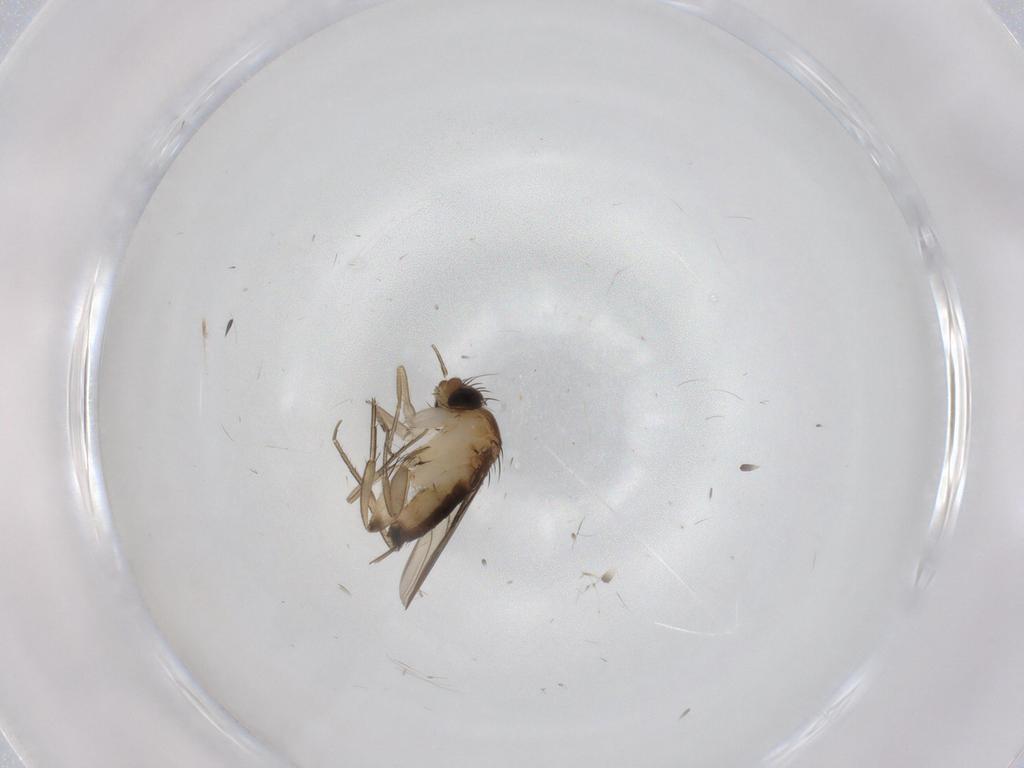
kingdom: Animalia
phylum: Arthropoda
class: Insecta
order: Diptera
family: Phoridae
